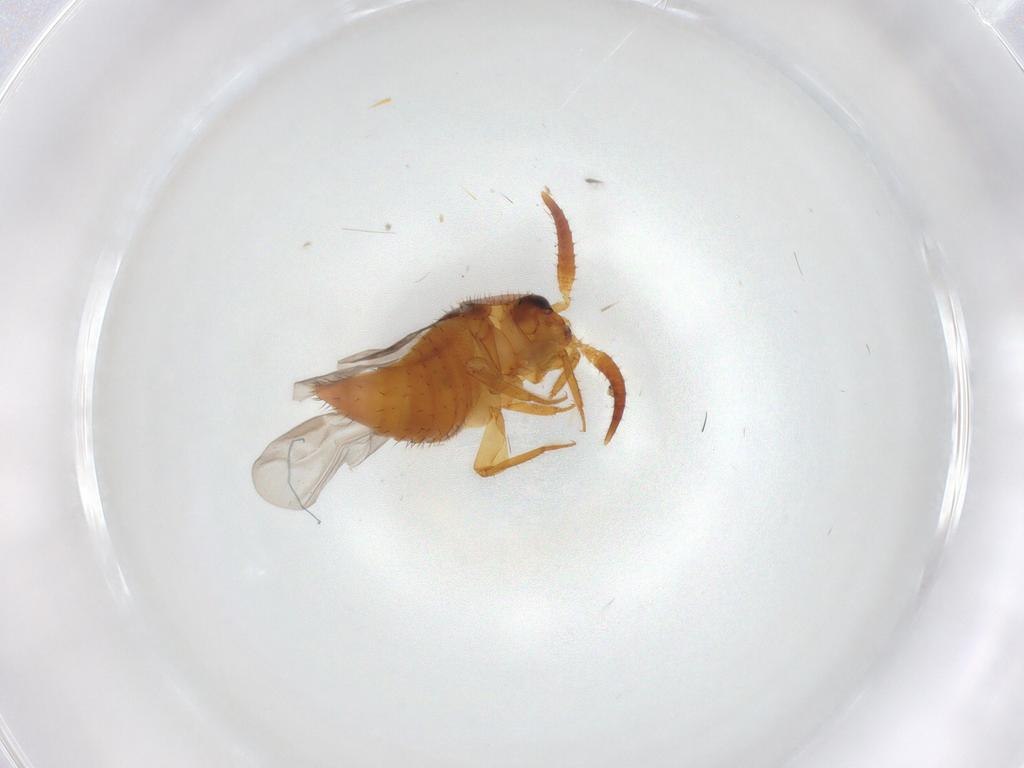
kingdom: Animalia
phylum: Arthropoda
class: Insecta
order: Coleoptera
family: Staphylinidae
